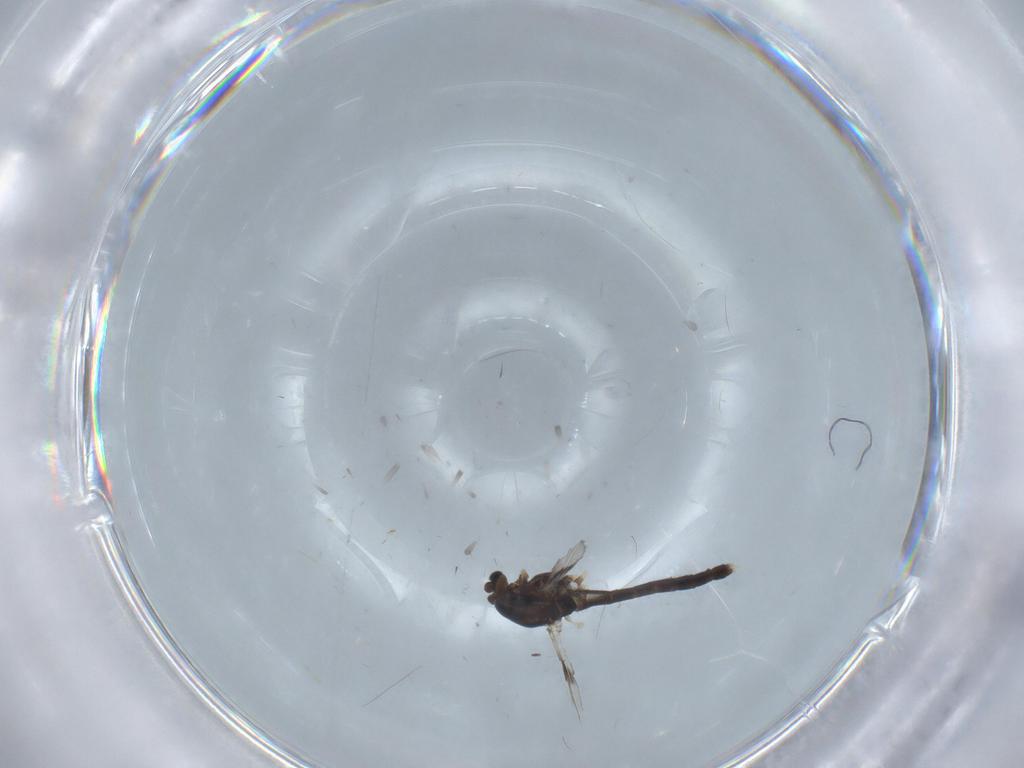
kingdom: Animalia
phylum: Arthropoda
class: Insecta
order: Diptera
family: Chironomidae
